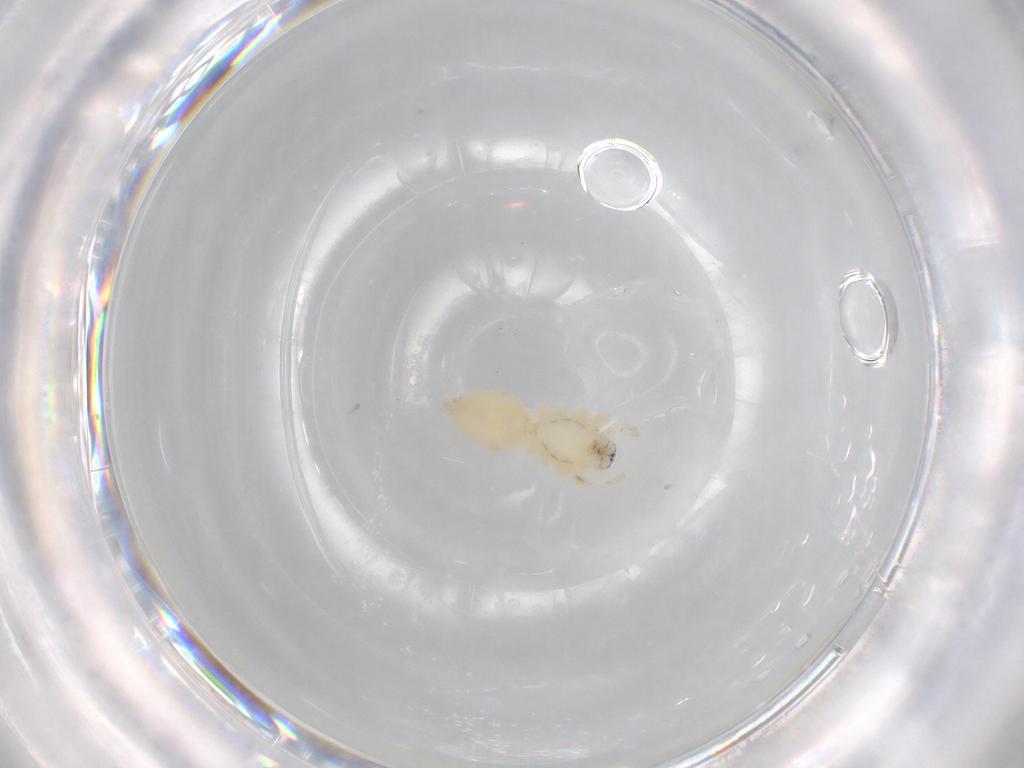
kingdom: Animalia
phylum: Arthropoda
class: Arachnida
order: Araneae
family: Anyphaenidae
